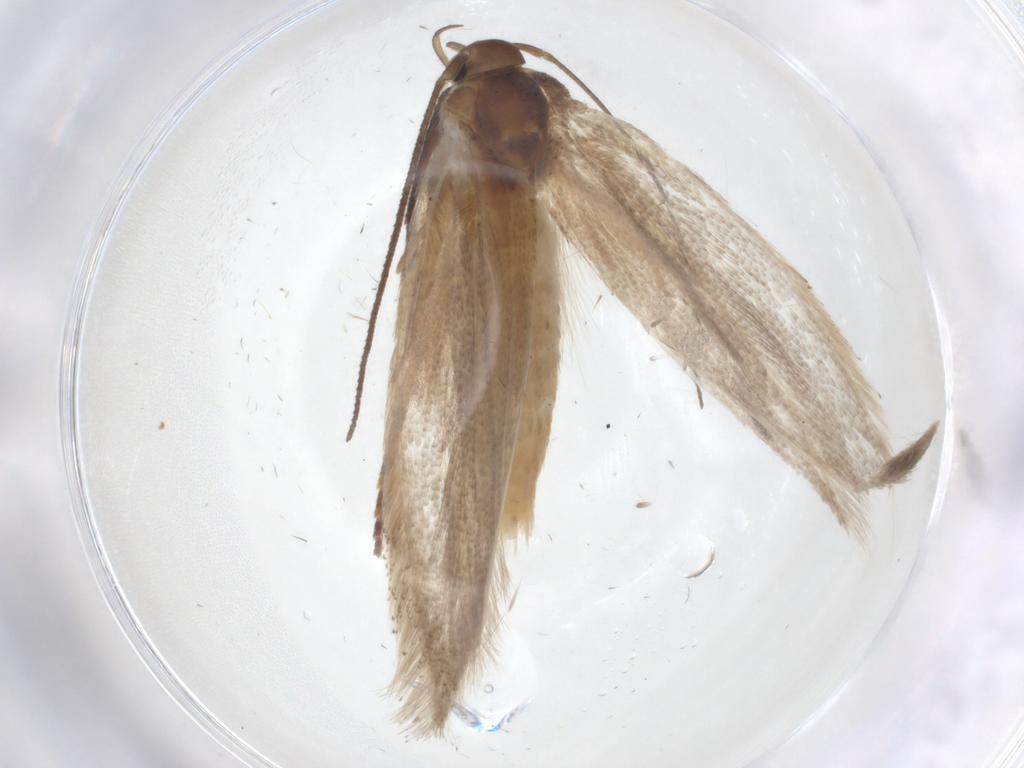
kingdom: Animalia
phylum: Arthropoda
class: Insecta
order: Lepidoptera
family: Elachistidae
